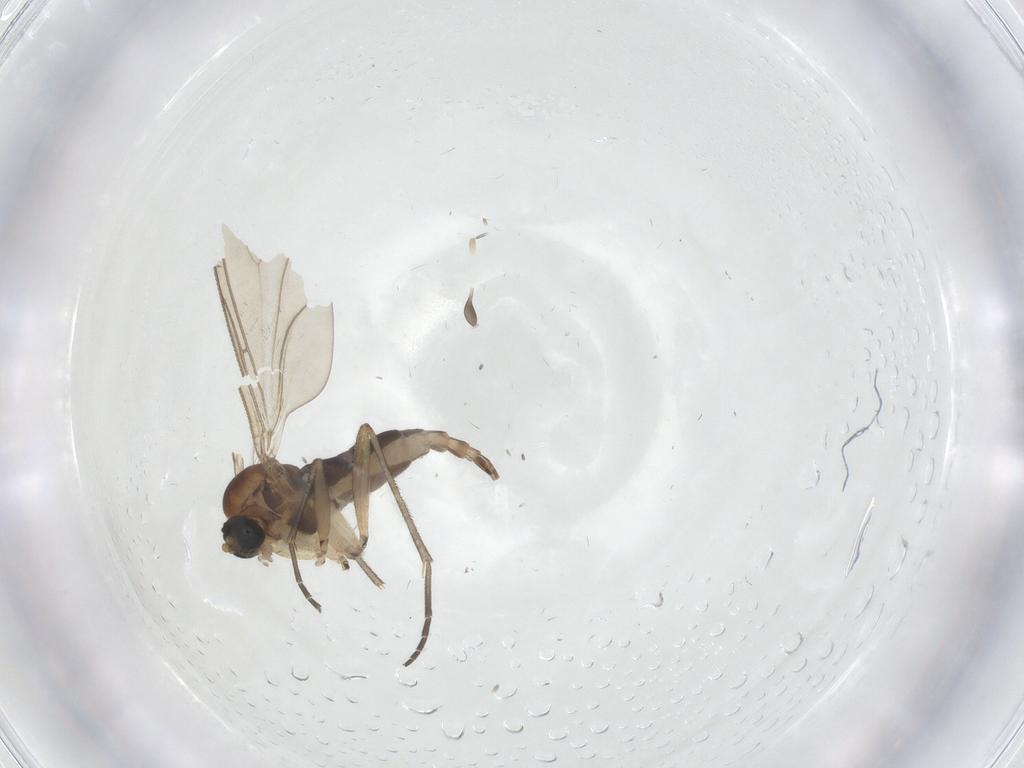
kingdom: Animalia
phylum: Arthropoda
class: Insecta
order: Diptera
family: Sciaridae
